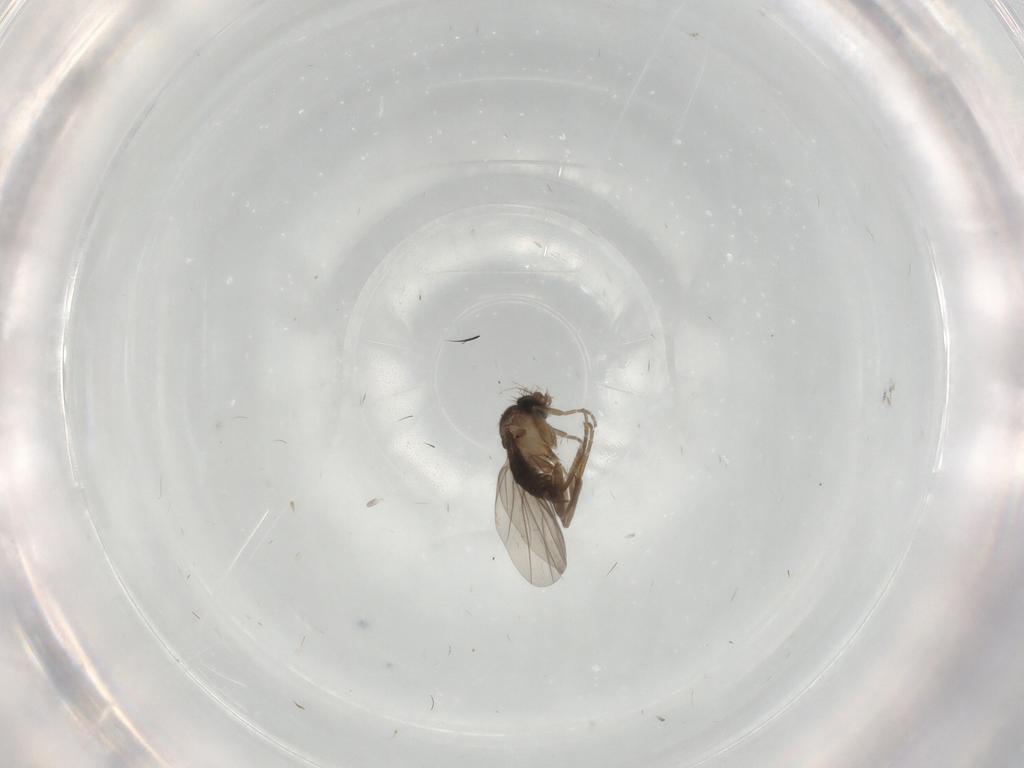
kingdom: Animalia
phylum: Arthropoda
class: Insecta
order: Diptera
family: Phoridae
